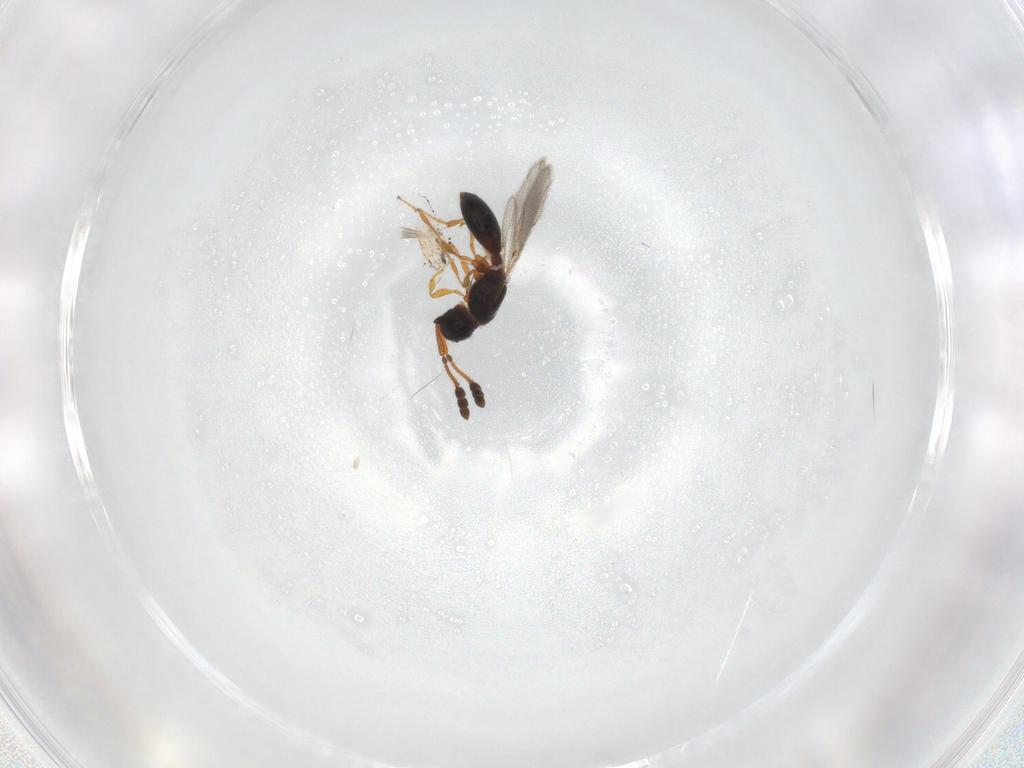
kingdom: Animalia
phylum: Arthropoda
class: Insecta
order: Hymenoptera
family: Diapriidae
